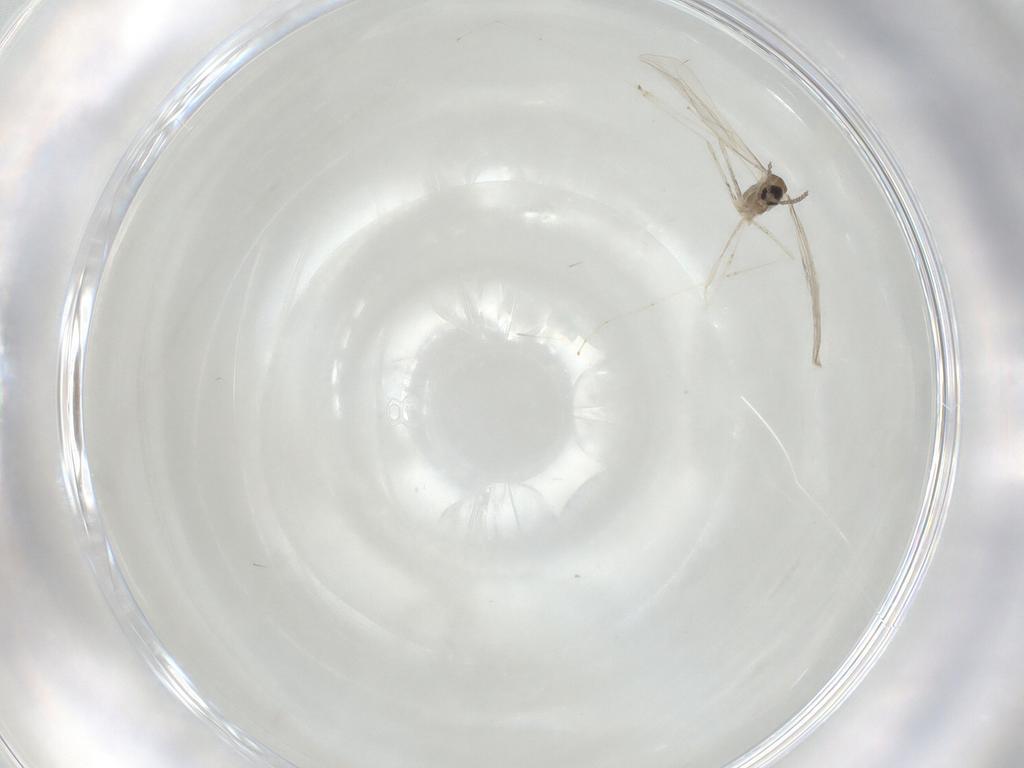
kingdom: Animalia
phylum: Arthropoda
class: Insecta
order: Diptera
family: Cecidomyiidae
